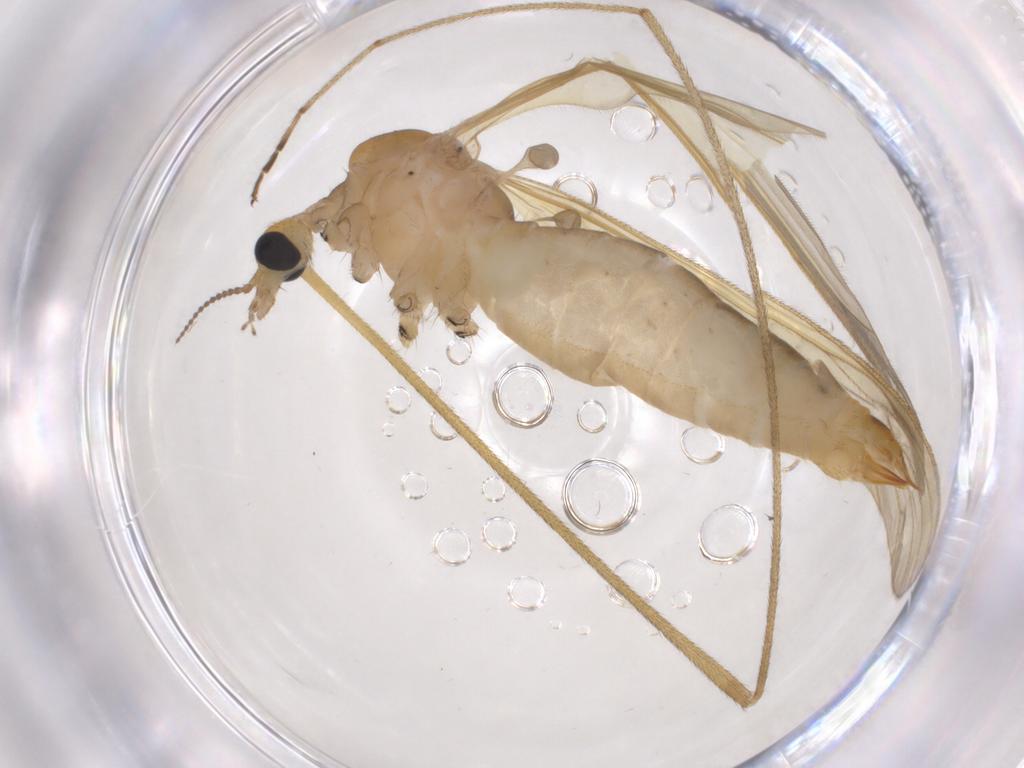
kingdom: Animalia
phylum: Arthropoda
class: Insecta
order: Diptera
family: Limoniidae
